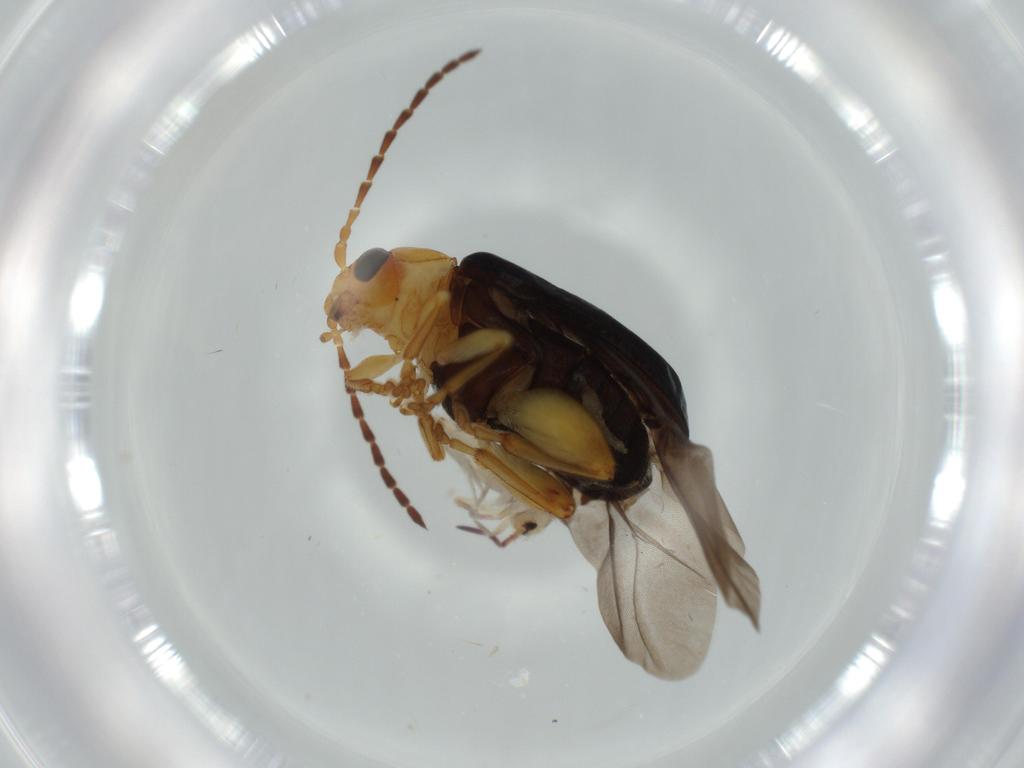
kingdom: Animalia
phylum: Arthropoda
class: Insecta
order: Coleoptera
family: Chrysomelidae
